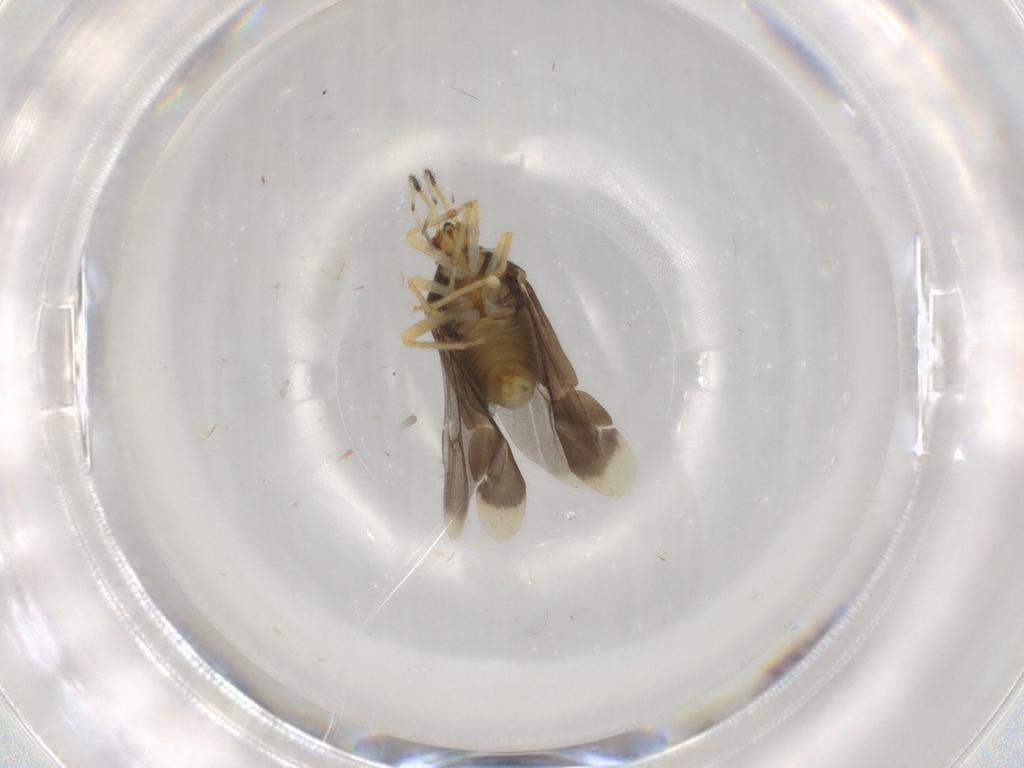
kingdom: Animalia
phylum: Arthropoda
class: Insecta
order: Hemiptera
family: Miridae
